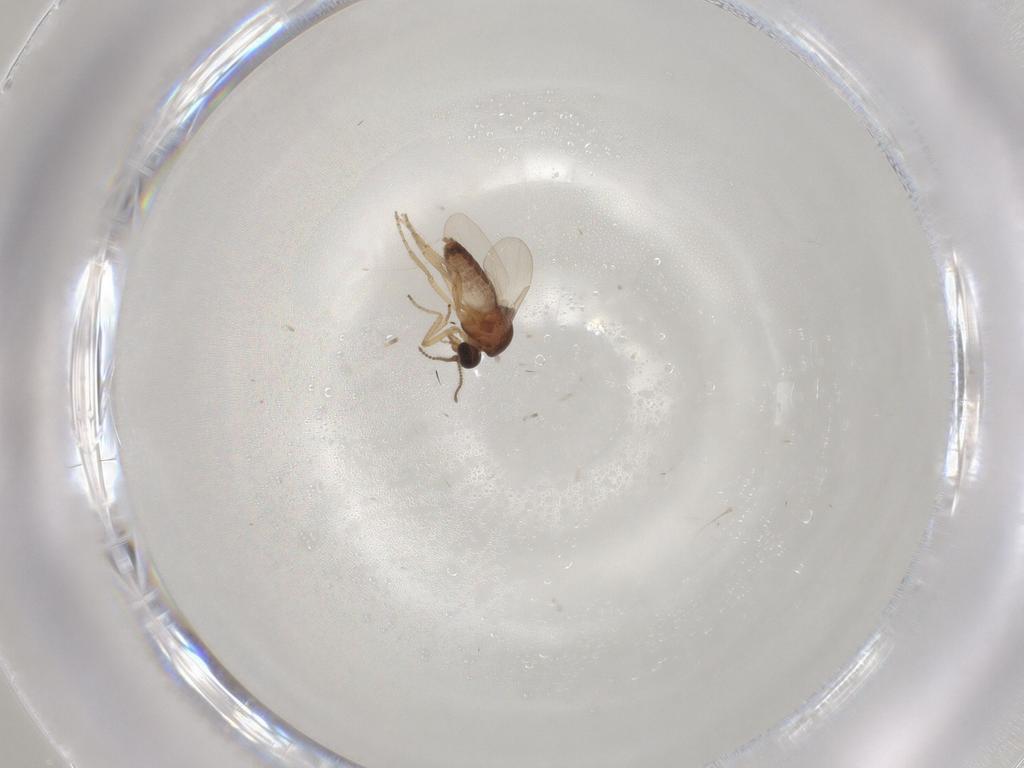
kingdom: Animalia
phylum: Arthropoda
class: Insecta
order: Diptera
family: Ceratopogonidae
